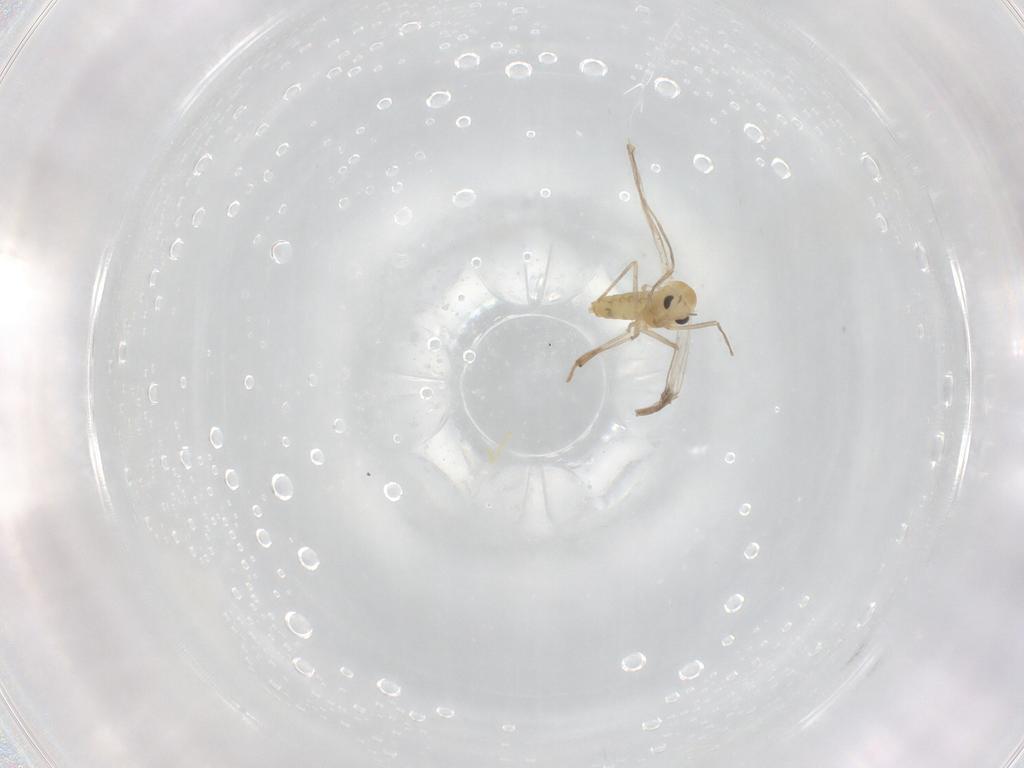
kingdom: Animalia
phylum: Arthropoda
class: Insecta
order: Diptera
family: Chironomidae
